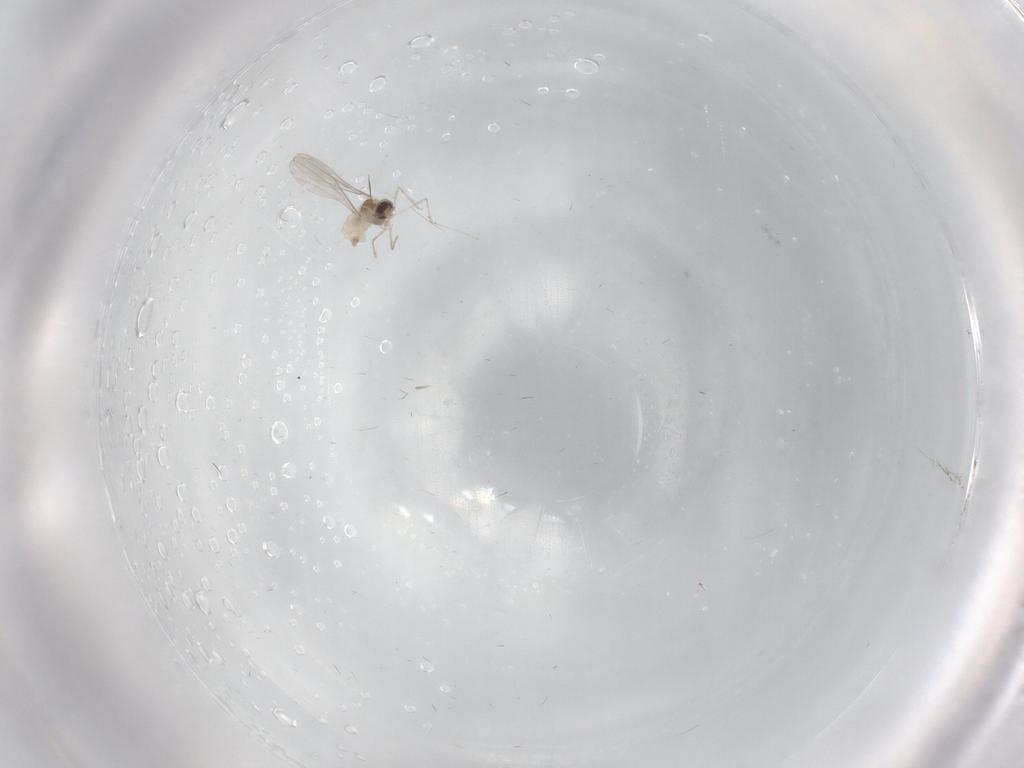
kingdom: Animalia
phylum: Arthropoda
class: Insecta
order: Diptera
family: Cecidomyiidae
